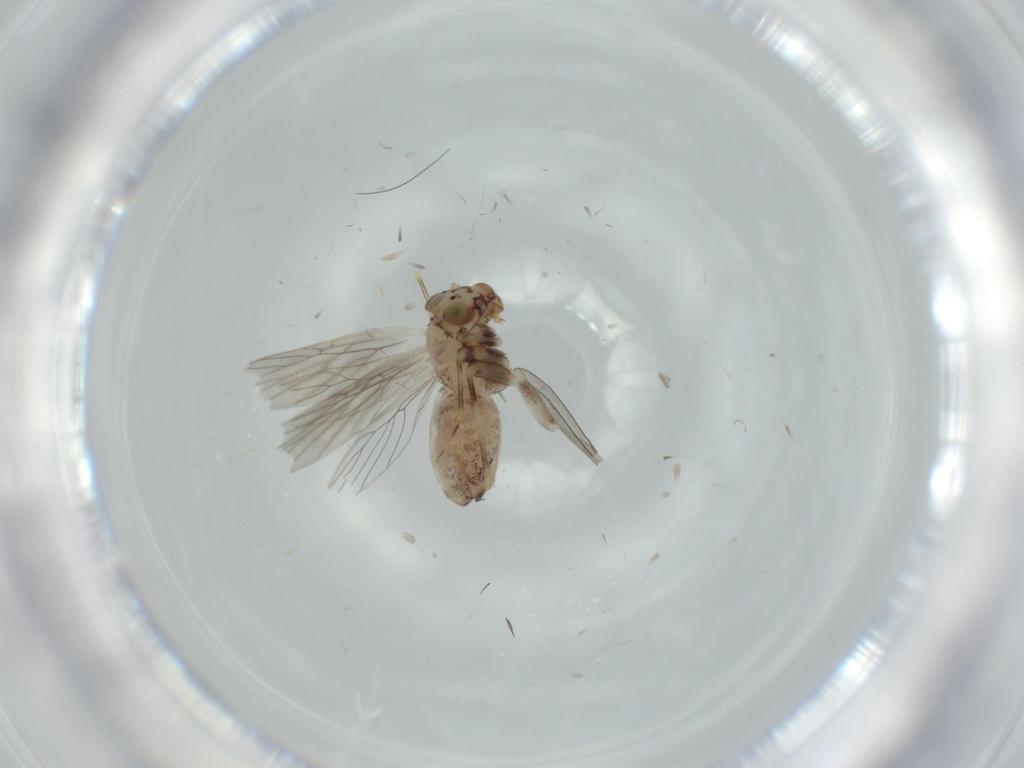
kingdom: Animalia
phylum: Arthropoda
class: Insecta
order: Psocodea
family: Lepidopsocidae
